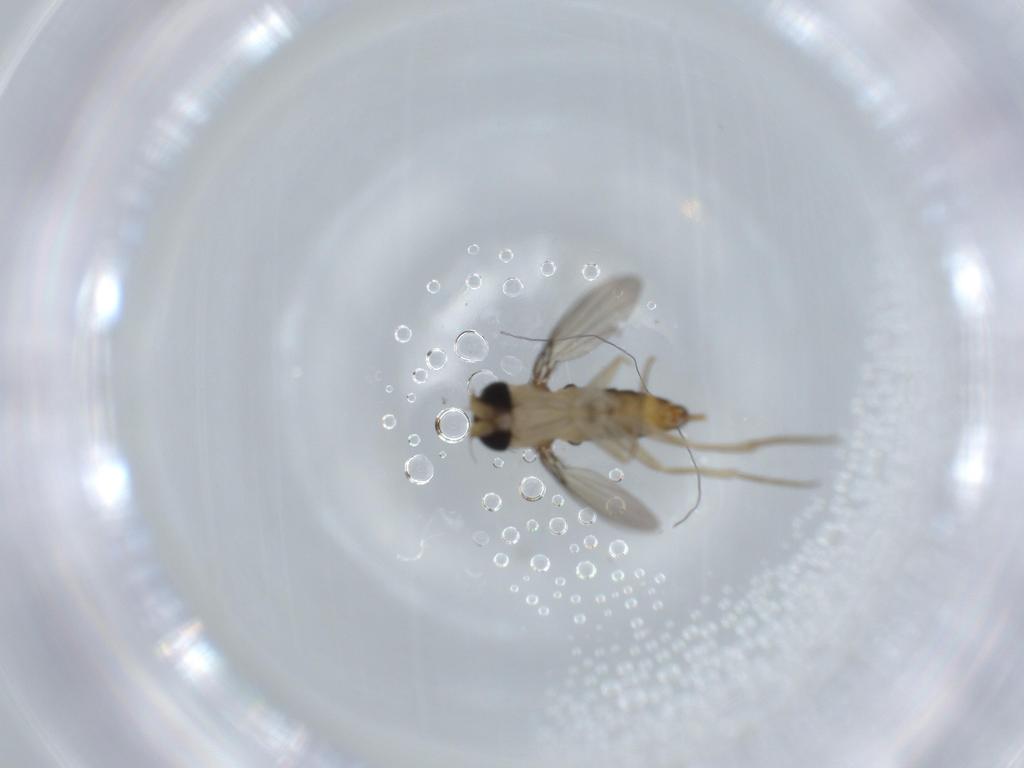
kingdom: Animalia
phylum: Arthropoda
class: Insecta
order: Diptera
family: Phoridae
